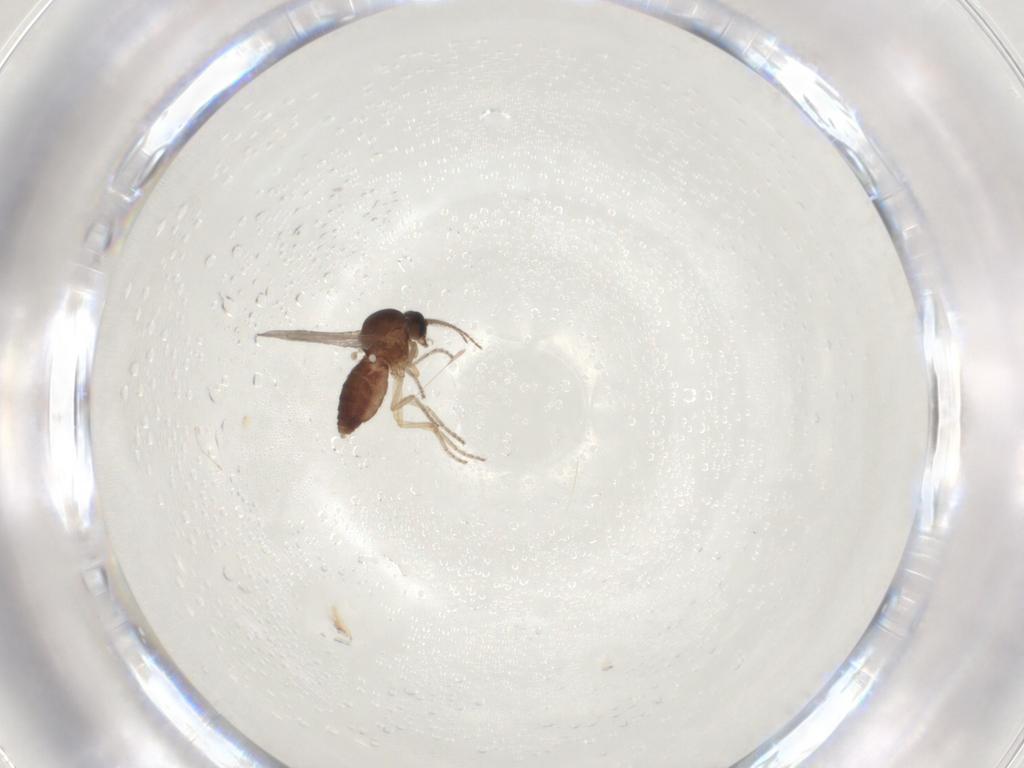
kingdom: Animalia
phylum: Arthropoda
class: Insecta
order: Diptera
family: Ceratopogonidae
